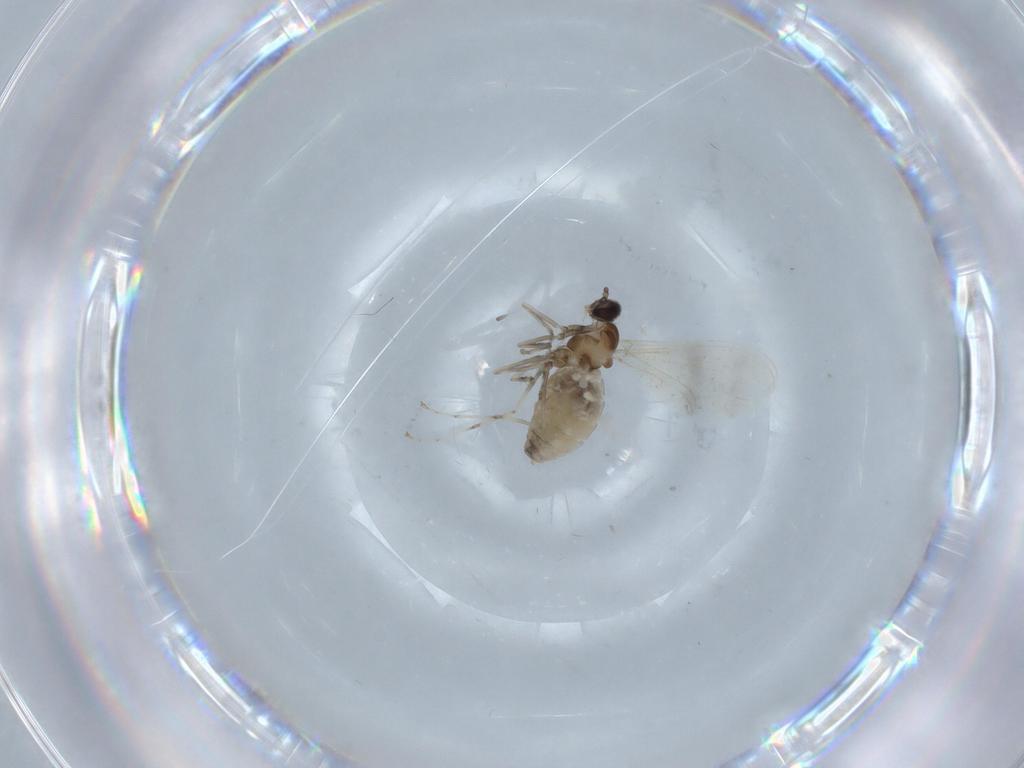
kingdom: Animalia
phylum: Arthropoda
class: Insecta
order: Diptera
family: Cecidomyiidae
